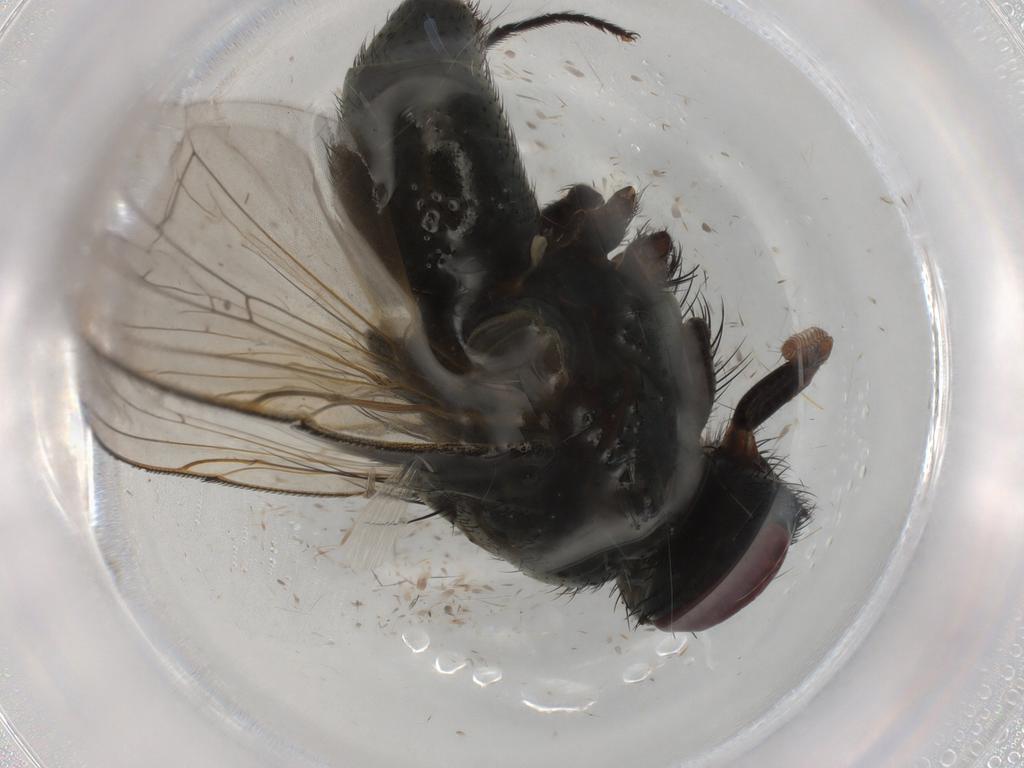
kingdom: Animalia
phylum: Arthropoda
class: Insecta
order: Diptera
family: Muscidae
